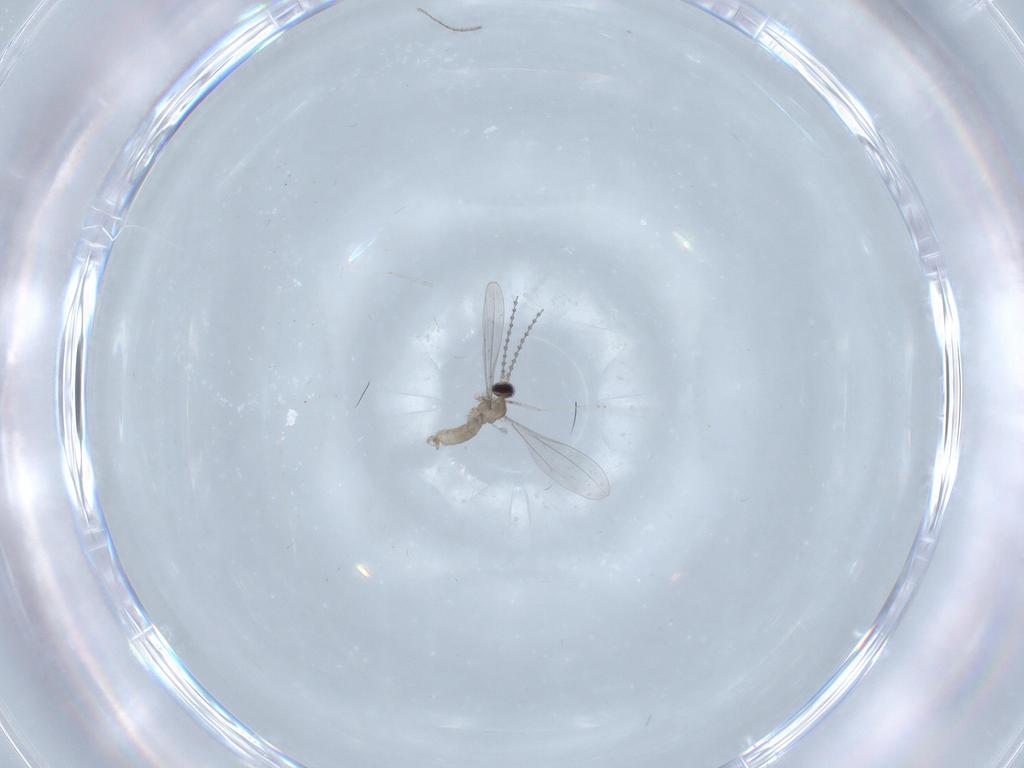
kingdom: Animalia
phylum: Arthropoda
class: Insecta
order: Diptera
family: Cecidomyiidae
